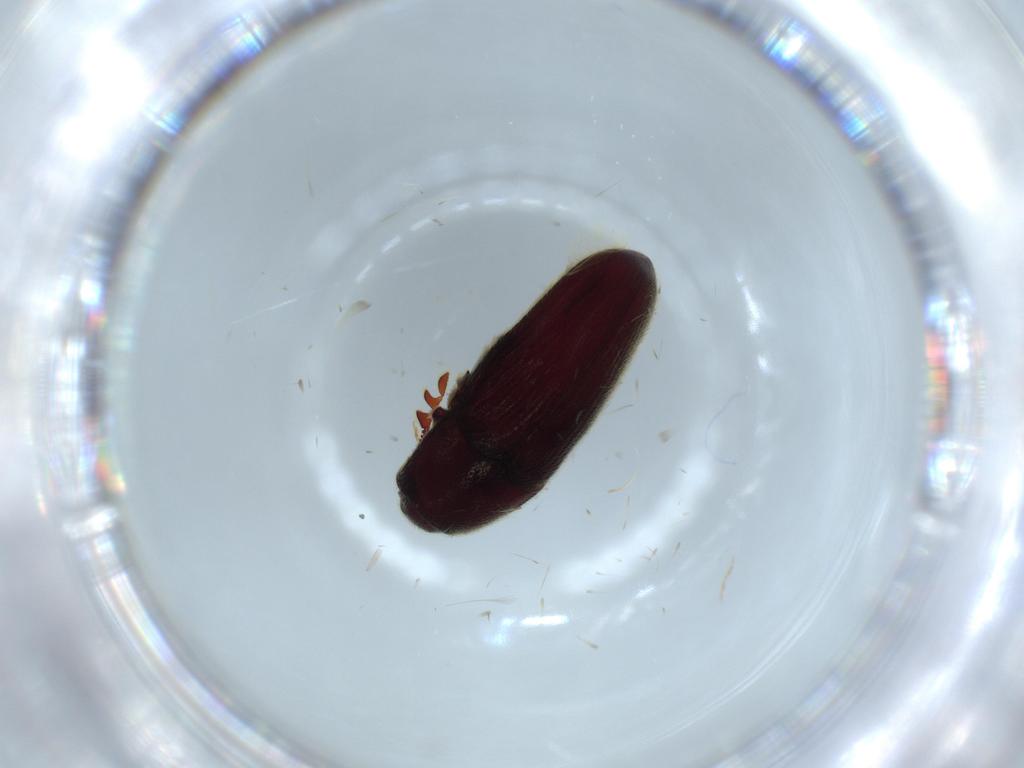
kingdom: Animalia
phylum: Arthropoda
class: Insecta
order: Coleoptera
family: Throscidae
